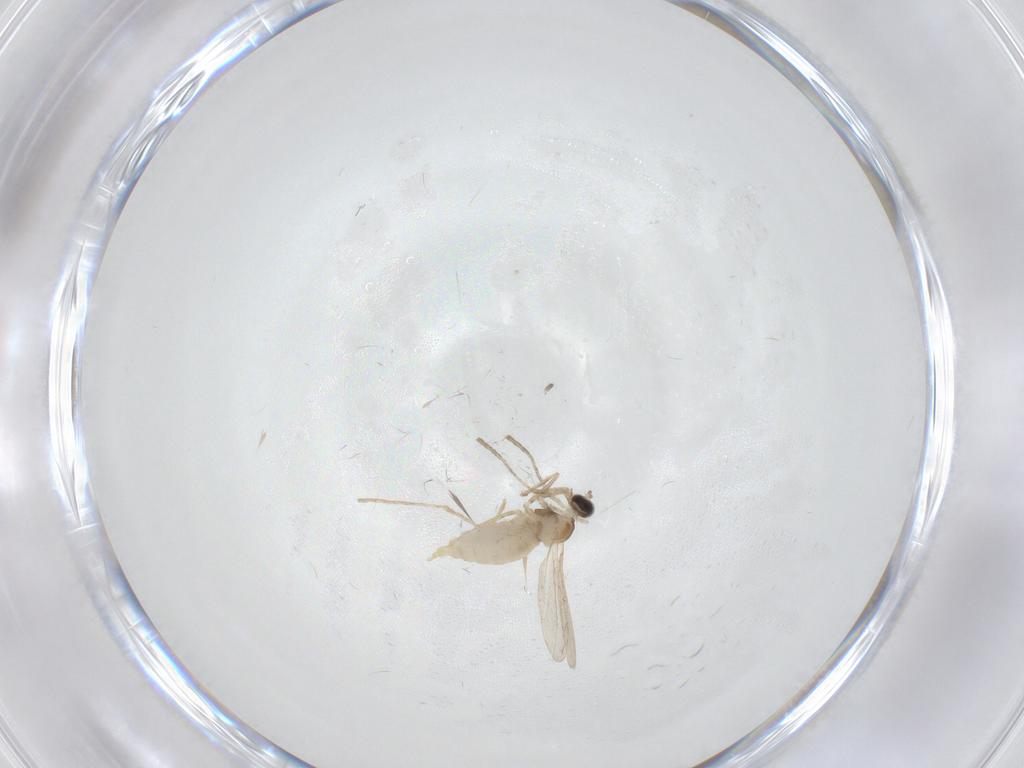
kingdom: Animalia
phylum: Arthropoda
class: Insecta
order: Diptera
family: Cecidomyiidae
